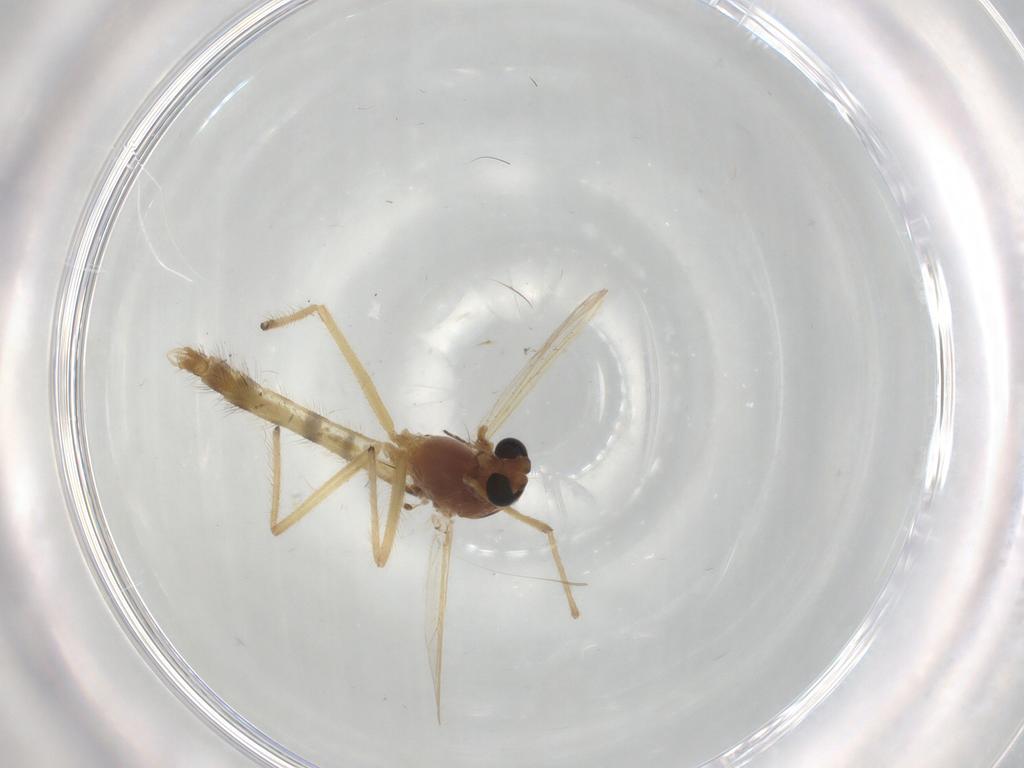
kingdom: Animalia
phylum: Arthropoda
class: Insecta
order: Diptera
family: Chironomidae
